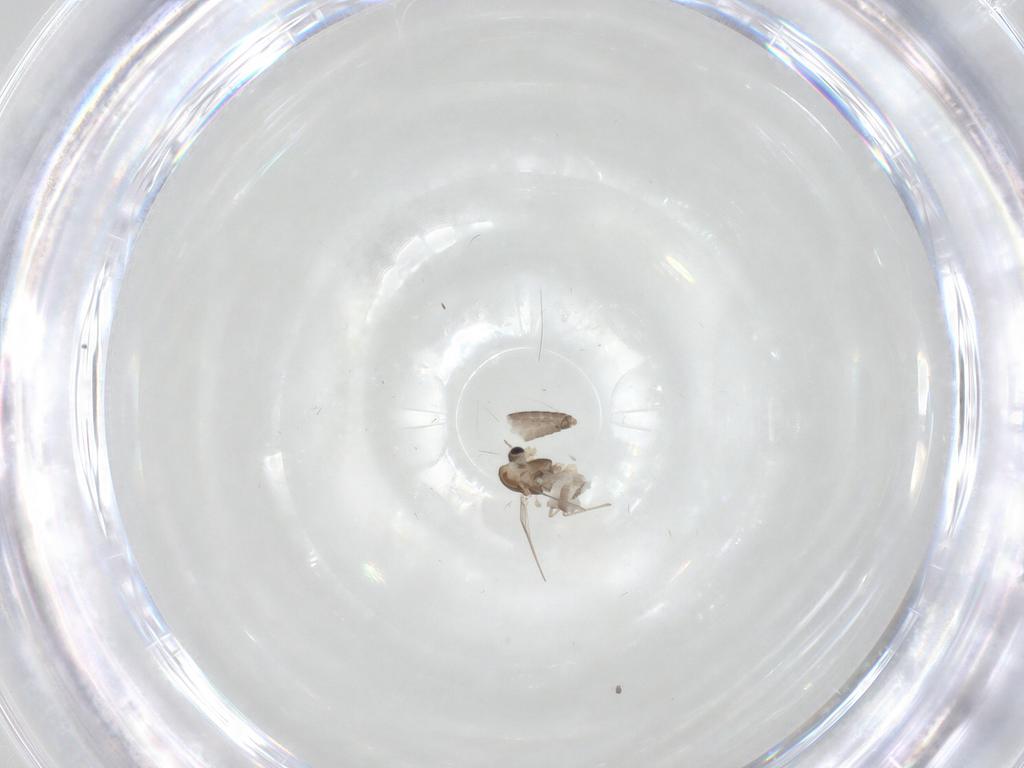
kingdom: Animalia
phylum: Arthropoda
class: Insecta
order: Diptera
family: Chironomidae
